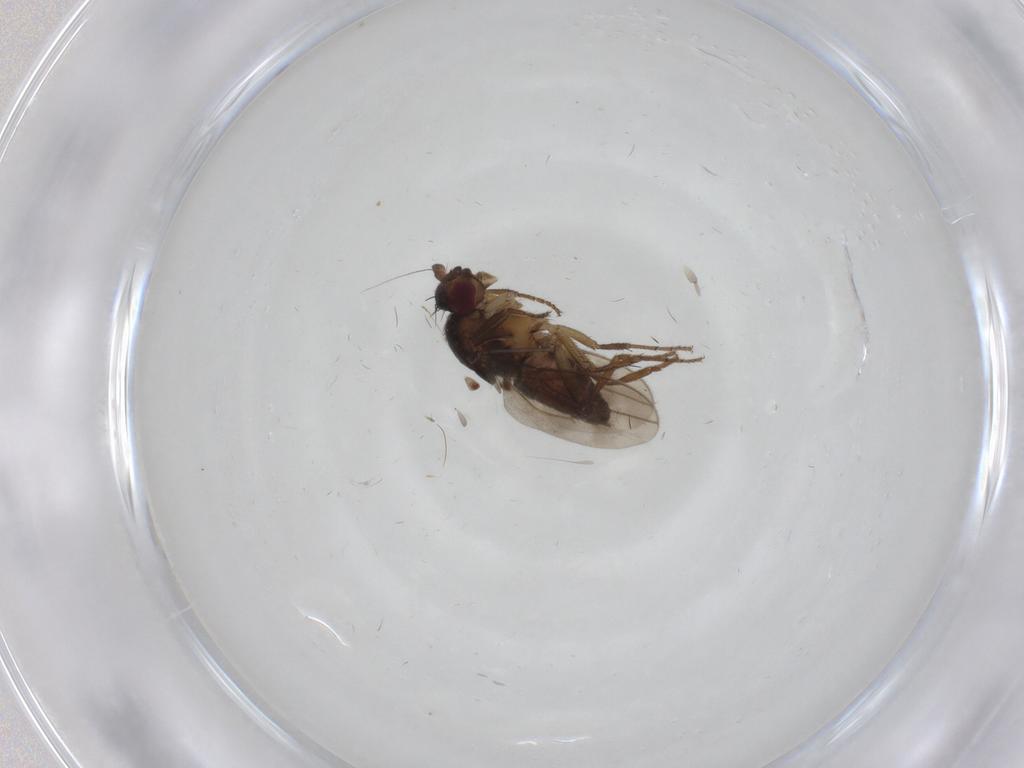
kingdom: Animalia
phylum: Arthropoda
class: Insecta
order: Diptera
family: Sphaeroceridae
